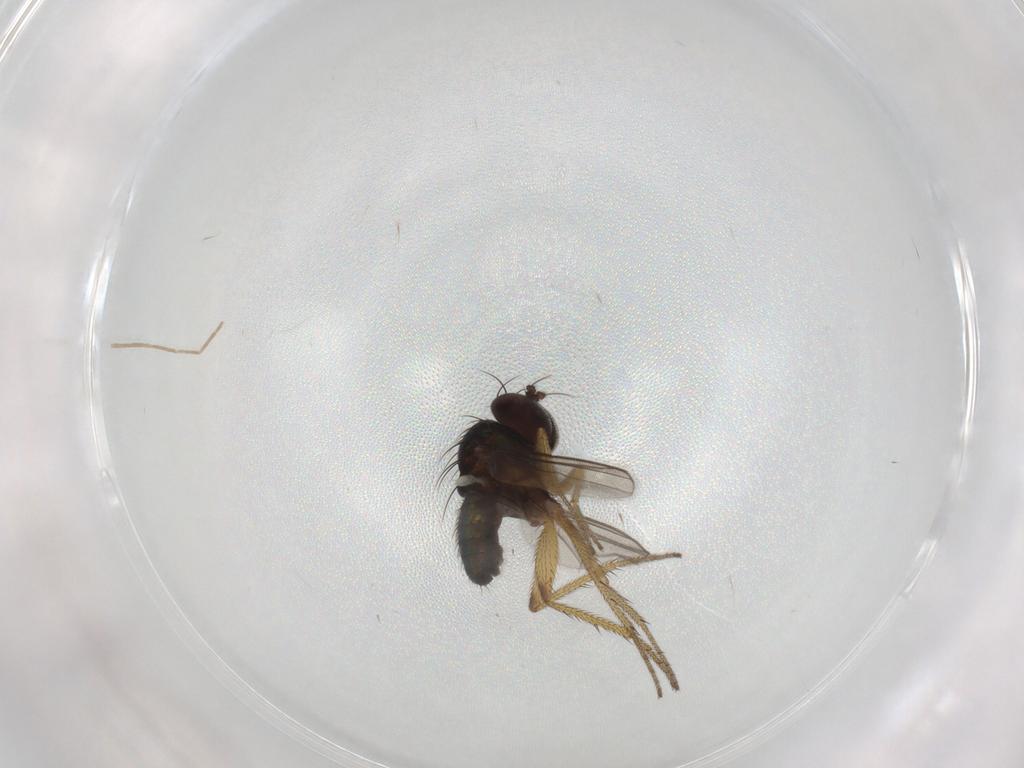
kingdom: Animalia
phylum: Arthropoda
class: Insecta
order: Diptera
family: Chironomidae
